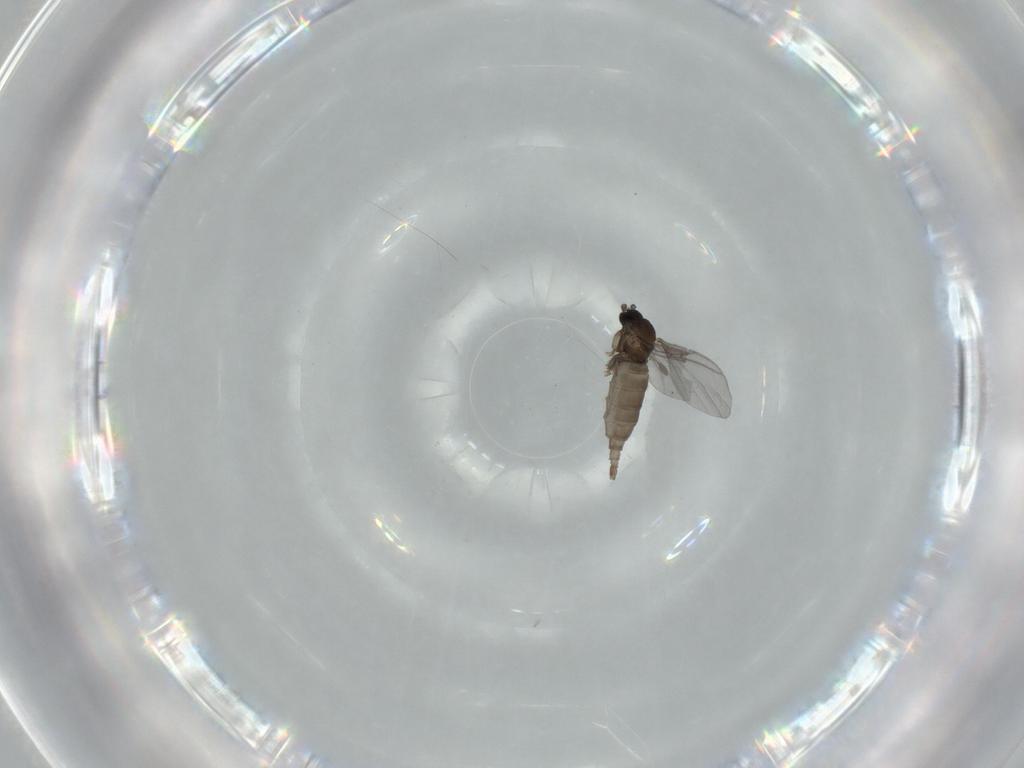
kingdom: Animalia
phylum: Arthropoda
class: Insecta
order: Diptera
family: Sciaridae
